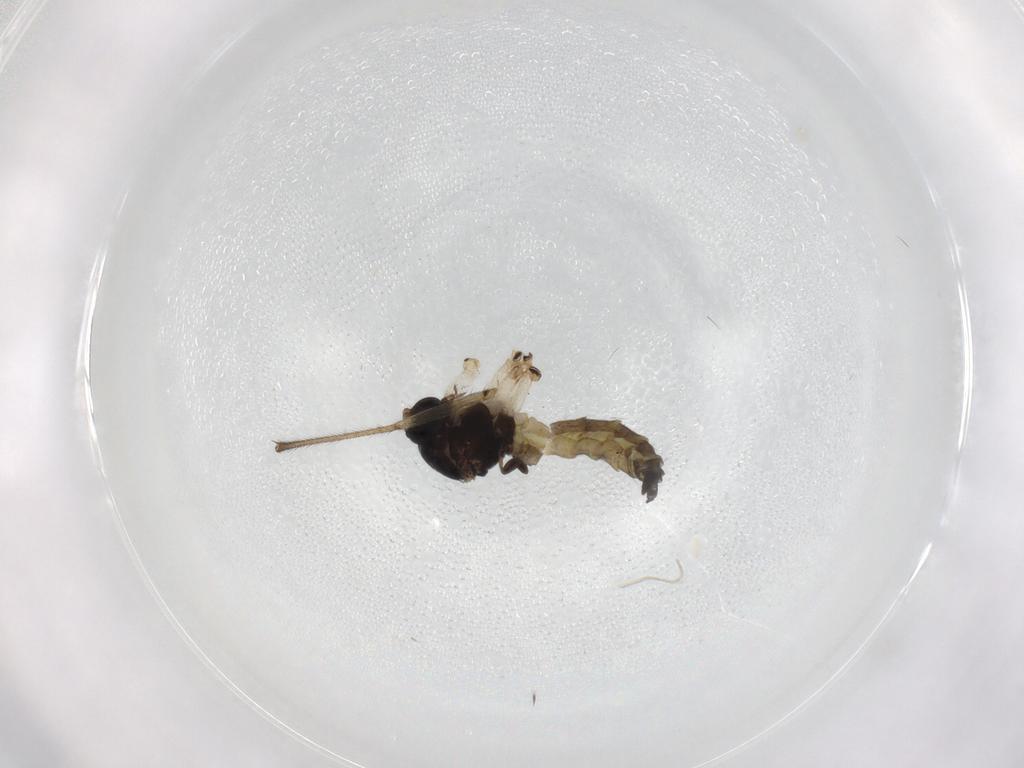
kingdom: Animalia
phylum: Arthropoda
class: Insecta
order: Diptera
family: Sciaridae
